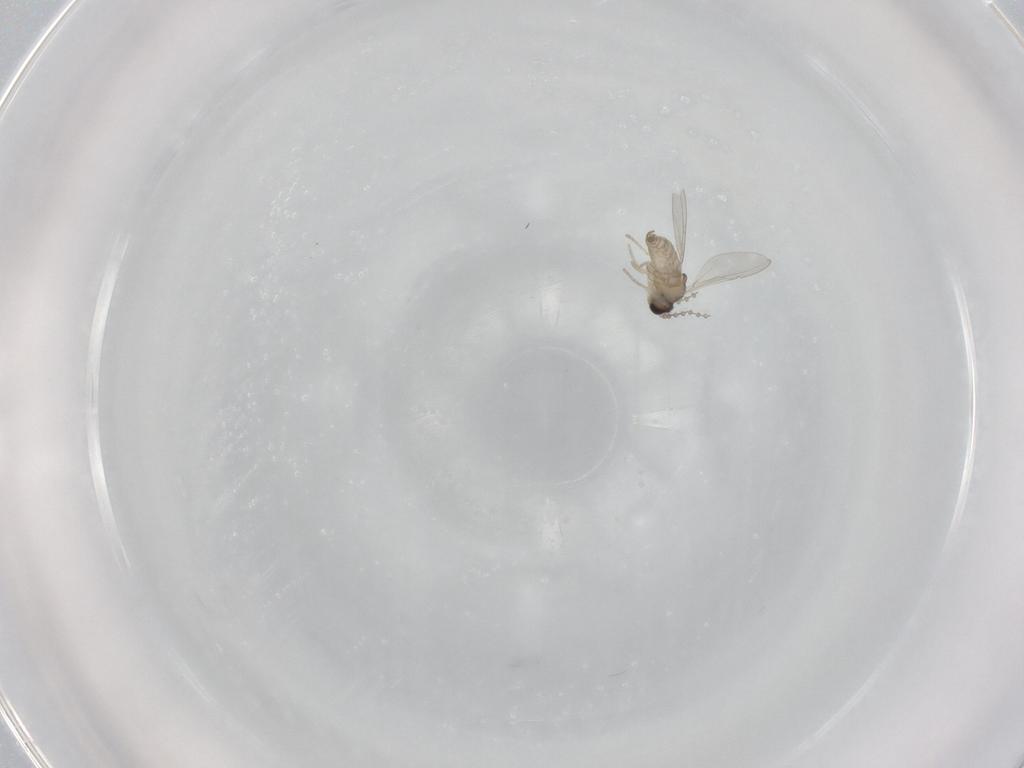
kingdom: Animalia
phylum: Arthropoda
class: Insecta
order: Diptera
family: Cecidomyiidae
